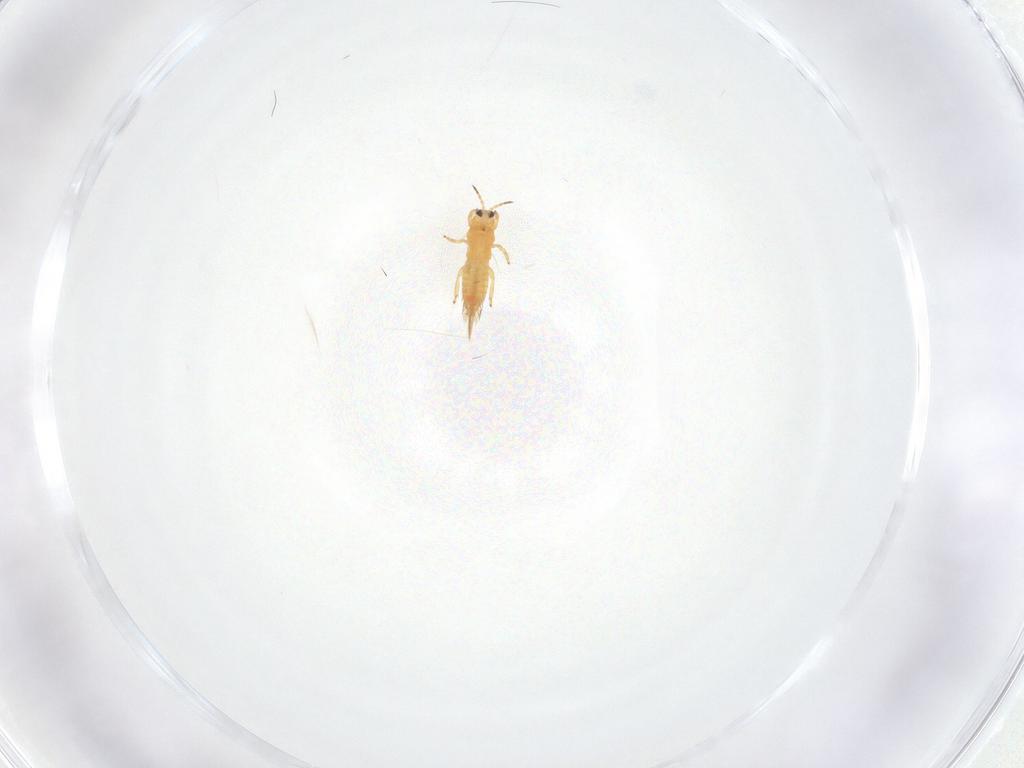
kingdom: Animalia
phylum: Arthropoda
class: Insecta
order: Thysanoptera
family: Thripidae
